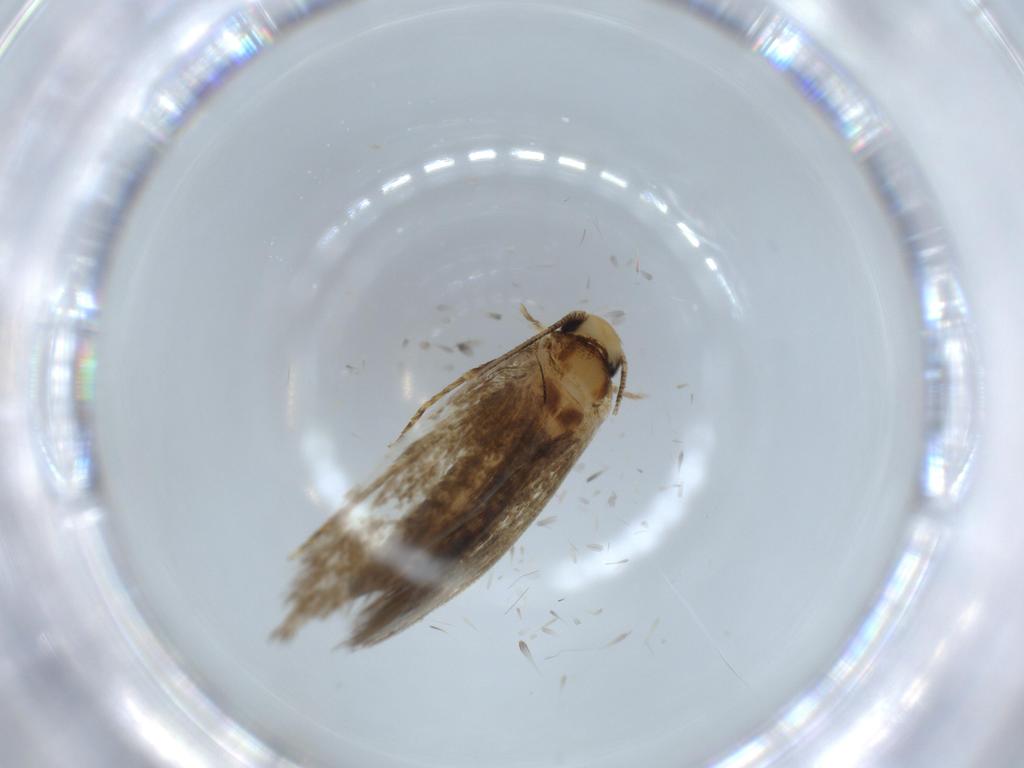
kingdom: Animalia
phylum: Arthropoda
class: Insecta
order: Lepidoptera
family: Tineidae
